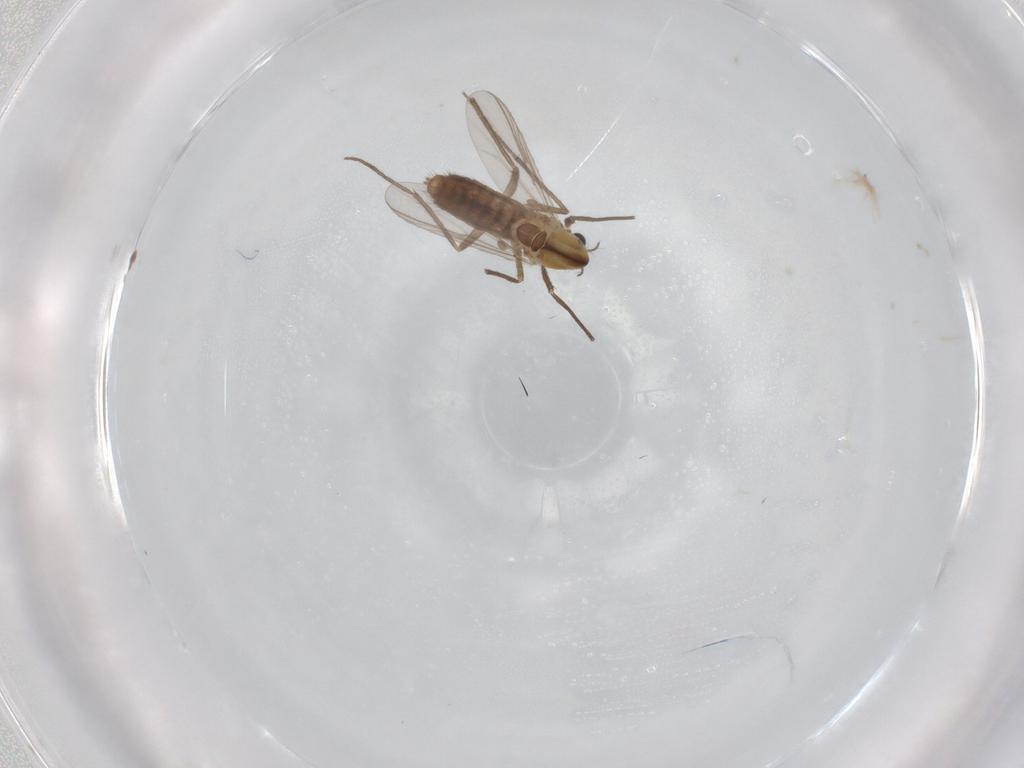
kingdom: Animalia
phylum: Arthropoda
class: Insecta
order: Diptera
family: Chironomidae
